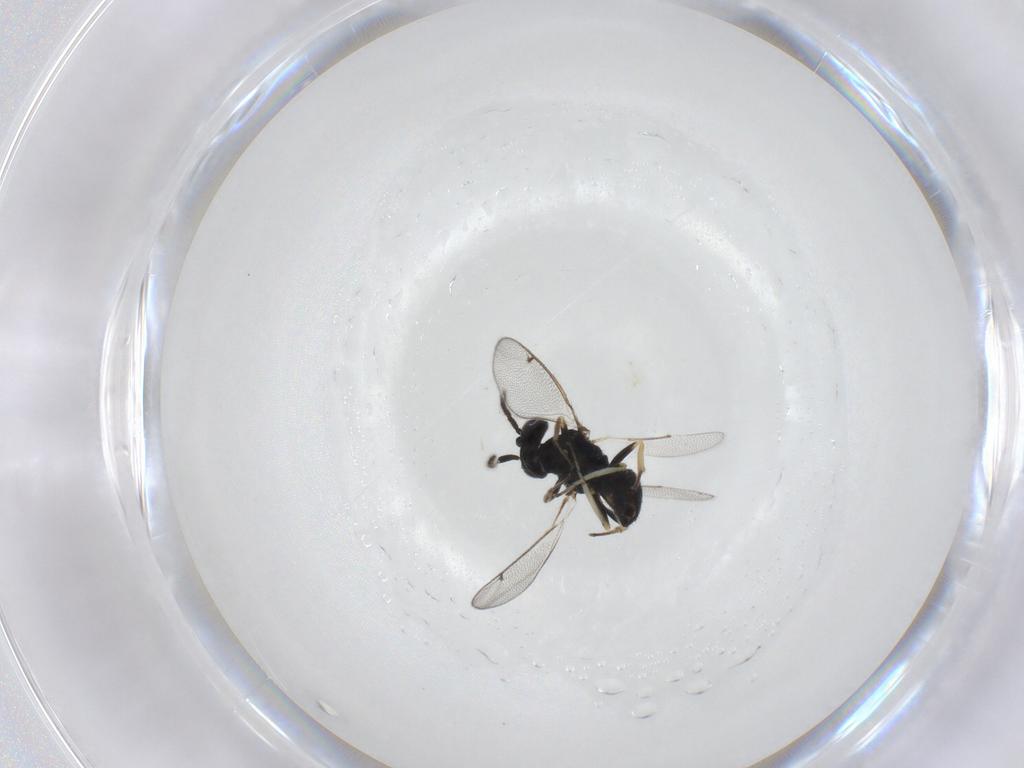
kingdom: Animalia
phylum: Arthropoda
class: Insecta
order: Hymenoptera
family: Eulophidae
